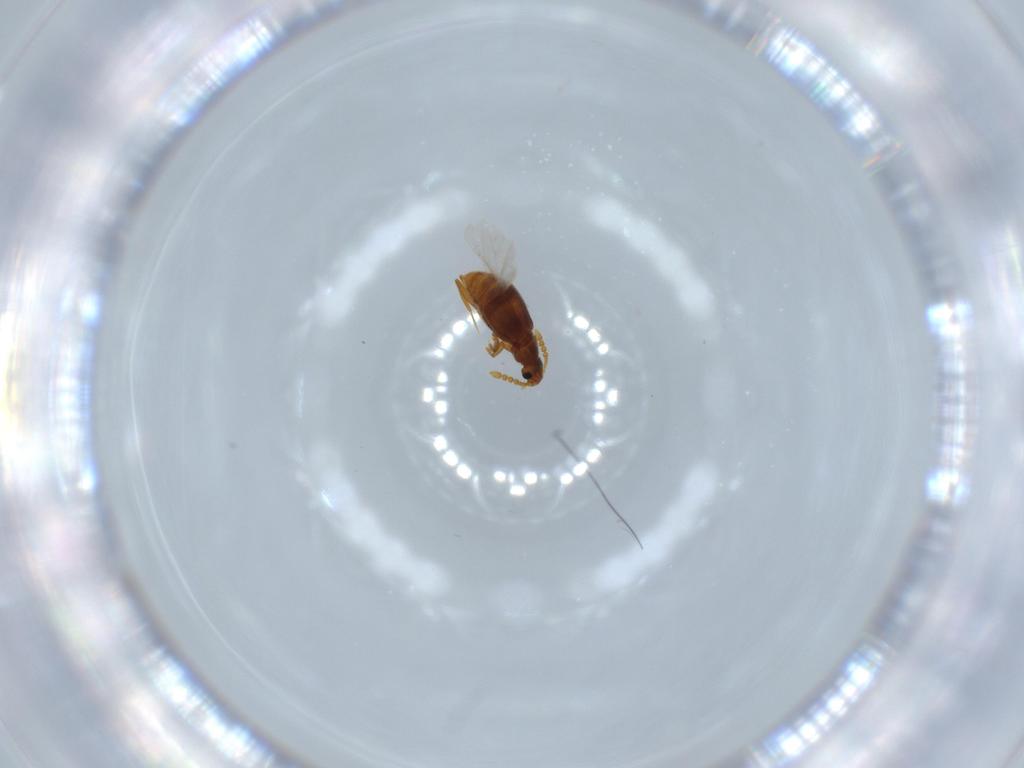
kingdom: Animalia
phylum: Arthropoda
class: Insecta
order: Coleoptera
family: Staphylinidae
